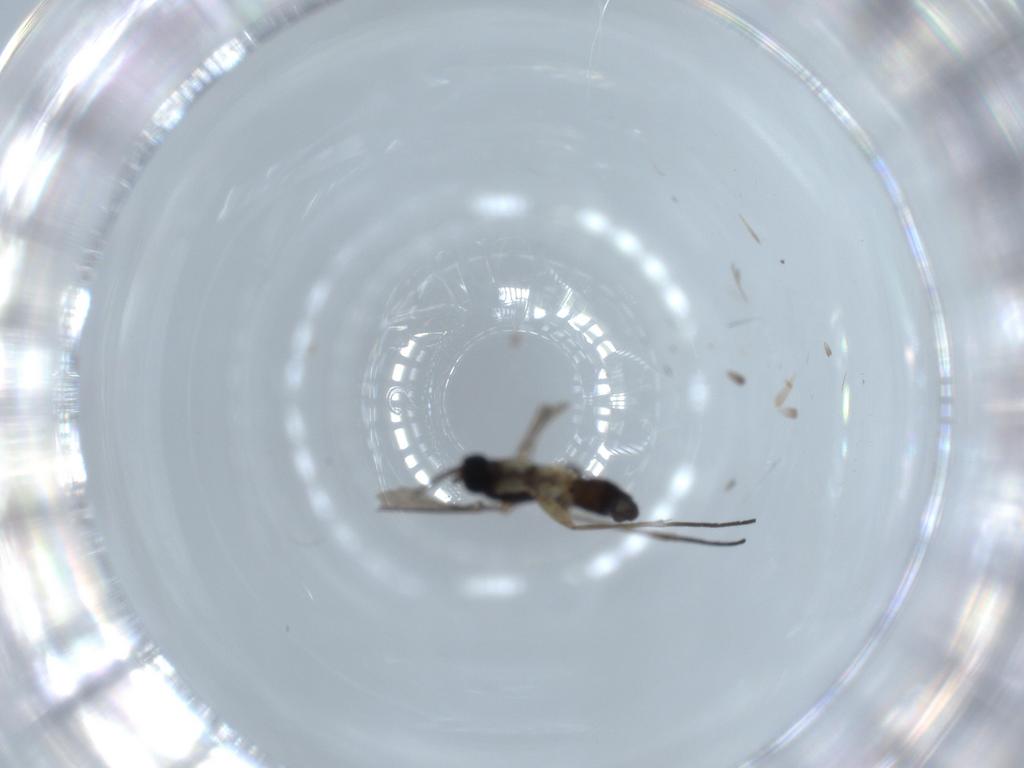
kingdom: Animalia
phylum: Arthropoda
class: Insecta
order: Diptera
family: Sciaridae
